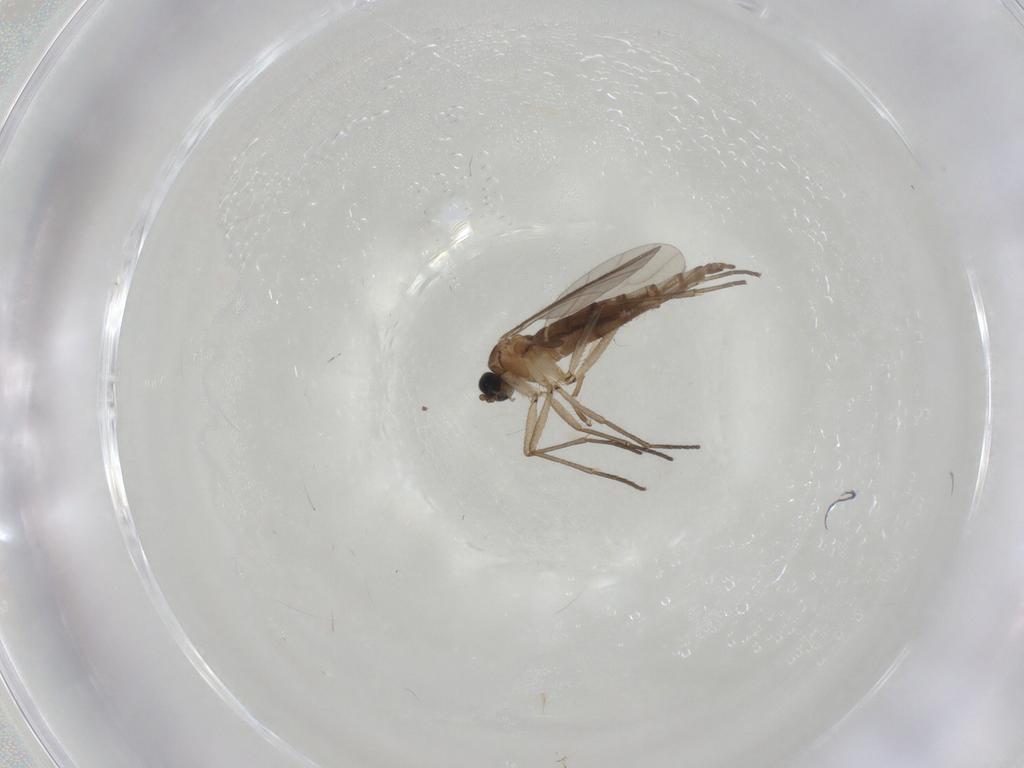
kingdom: Animalia
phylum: Arthropoda
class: Insecta
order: Diptera
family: Sciaridae
